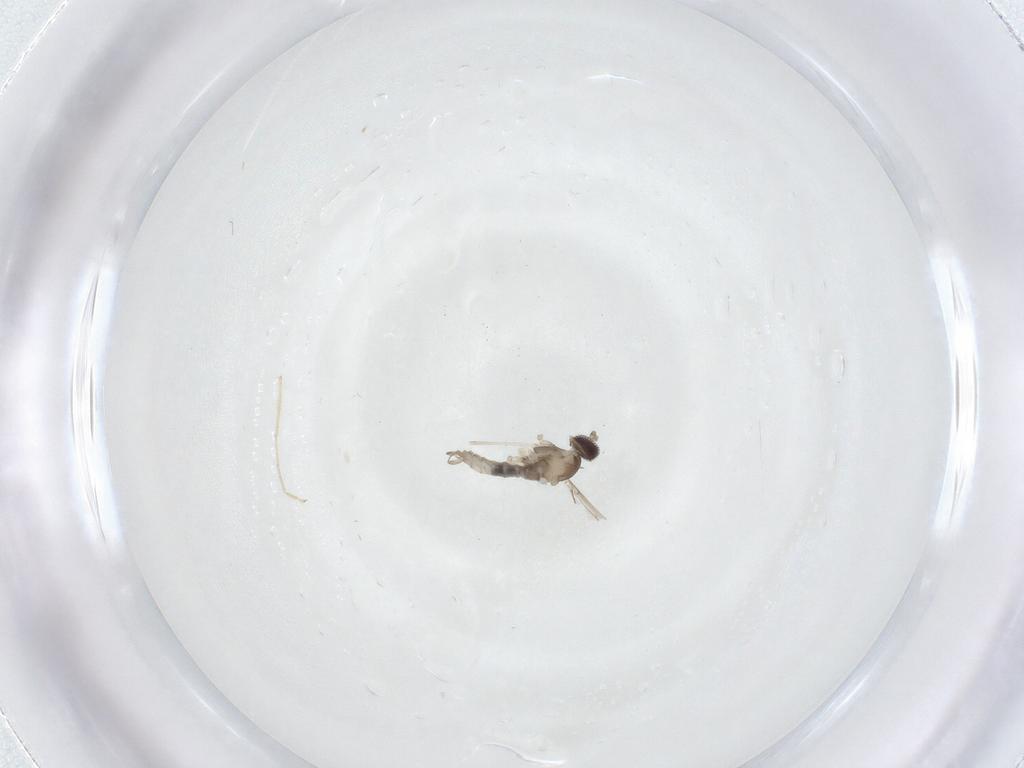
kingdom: Animalia
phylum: Arthropoda
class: Insecta
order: Diptera
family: Cecidomyiidae
